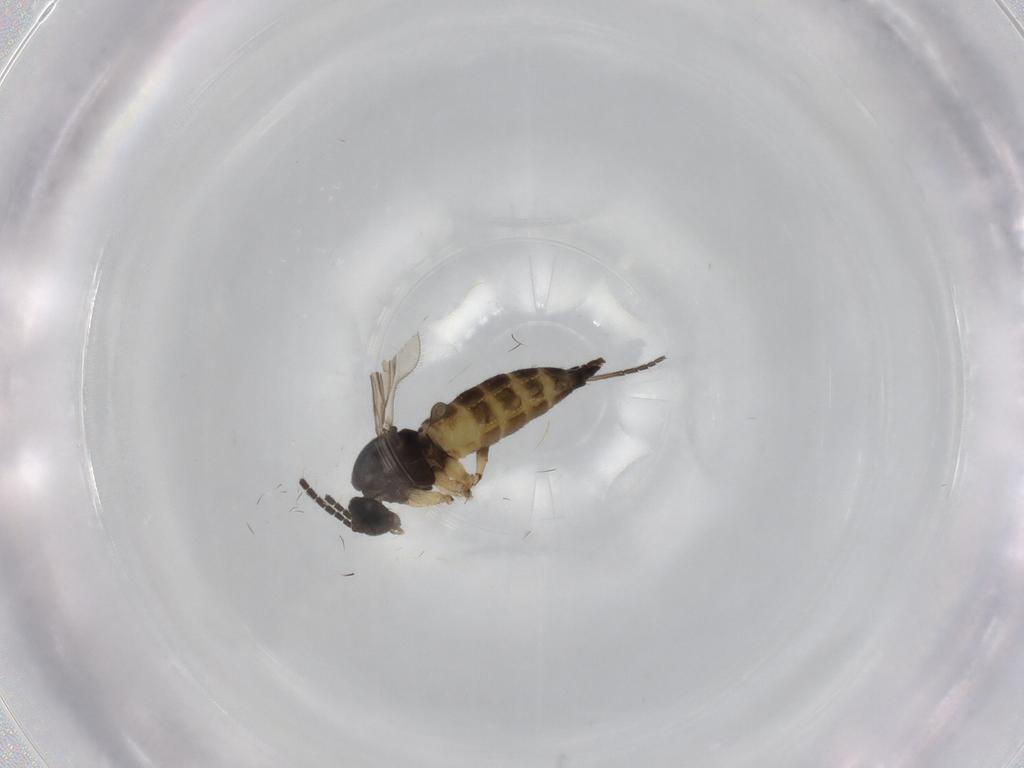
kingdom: Animalia
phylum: Arthropoda
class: Insecta
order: Diptera
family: Sciaridae
